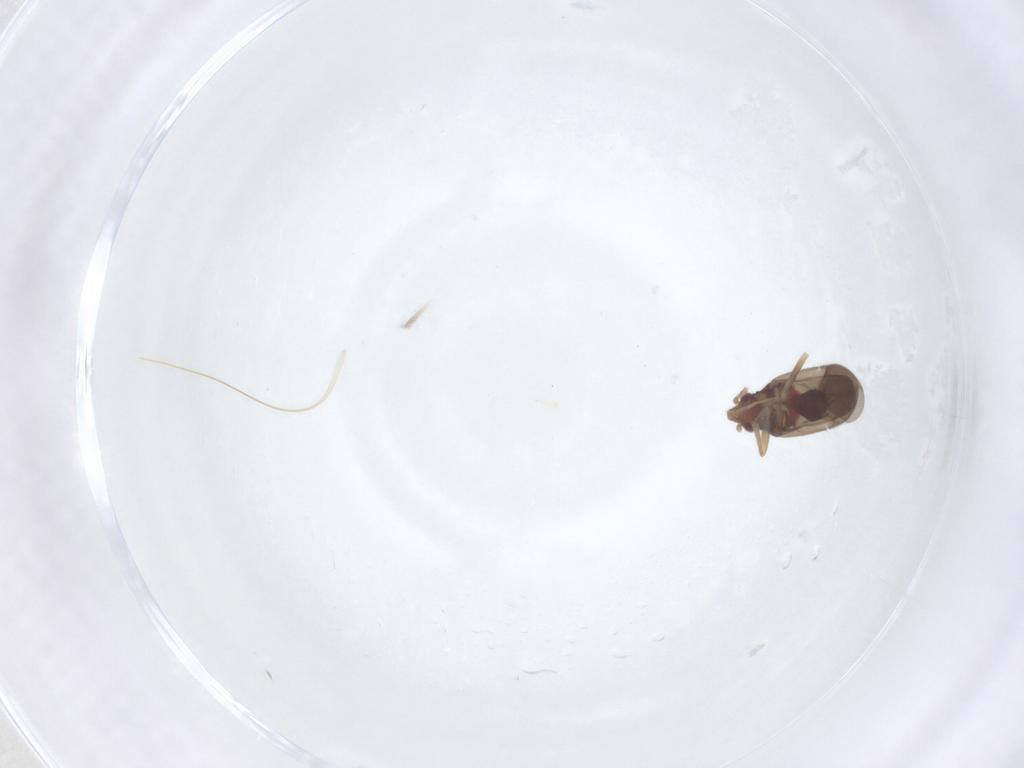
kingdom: Animalia
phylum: Arthropoda
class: Insecta
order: Hemiptera
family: Ceratocombidae
